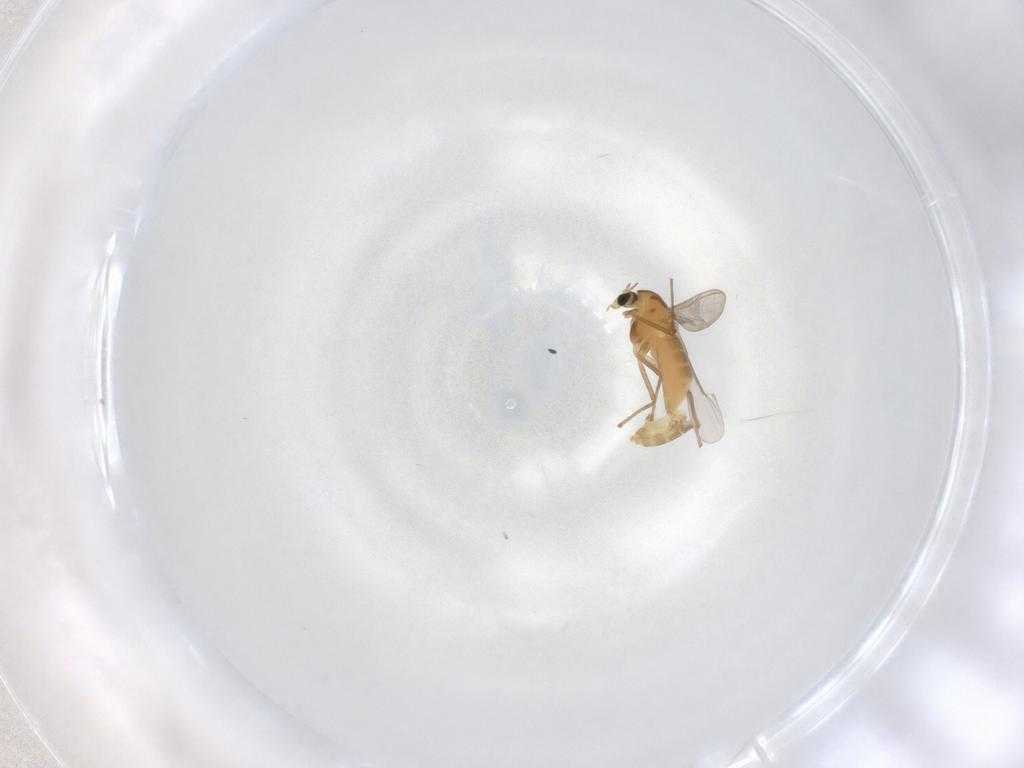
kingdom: Animalia
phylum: Arthropoda
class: Insecta
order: Diptera
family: Chironomidae
